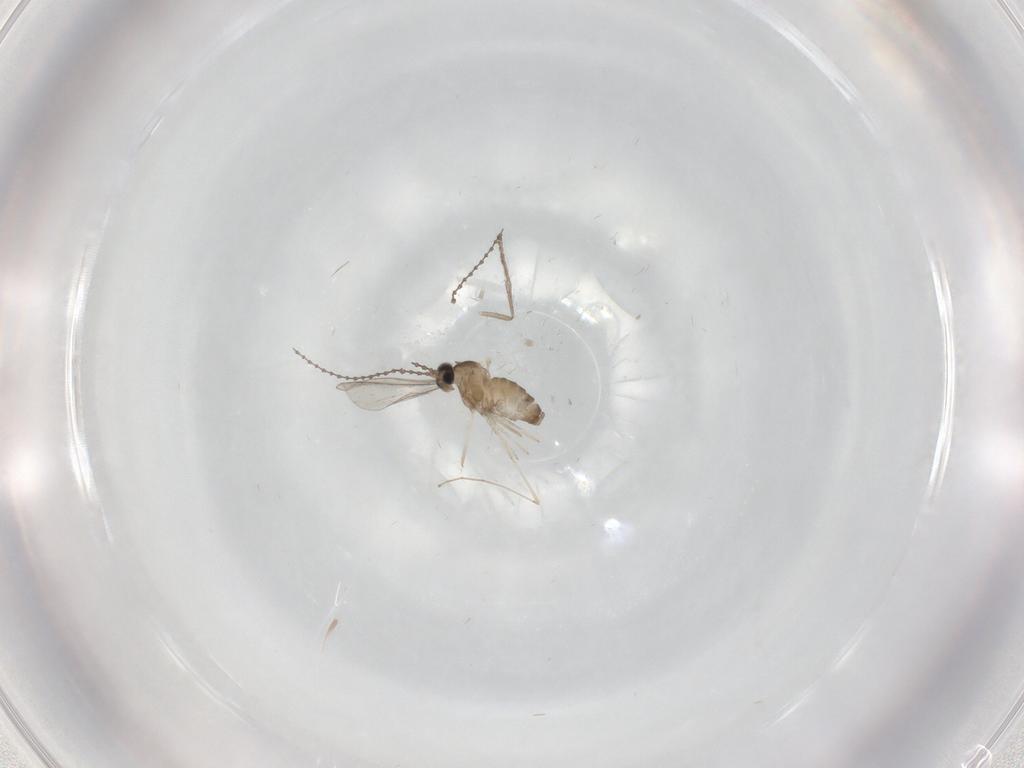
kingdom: Animalia
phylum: Arthropoda
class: Insecta
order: Diptera
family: Psychodidae
